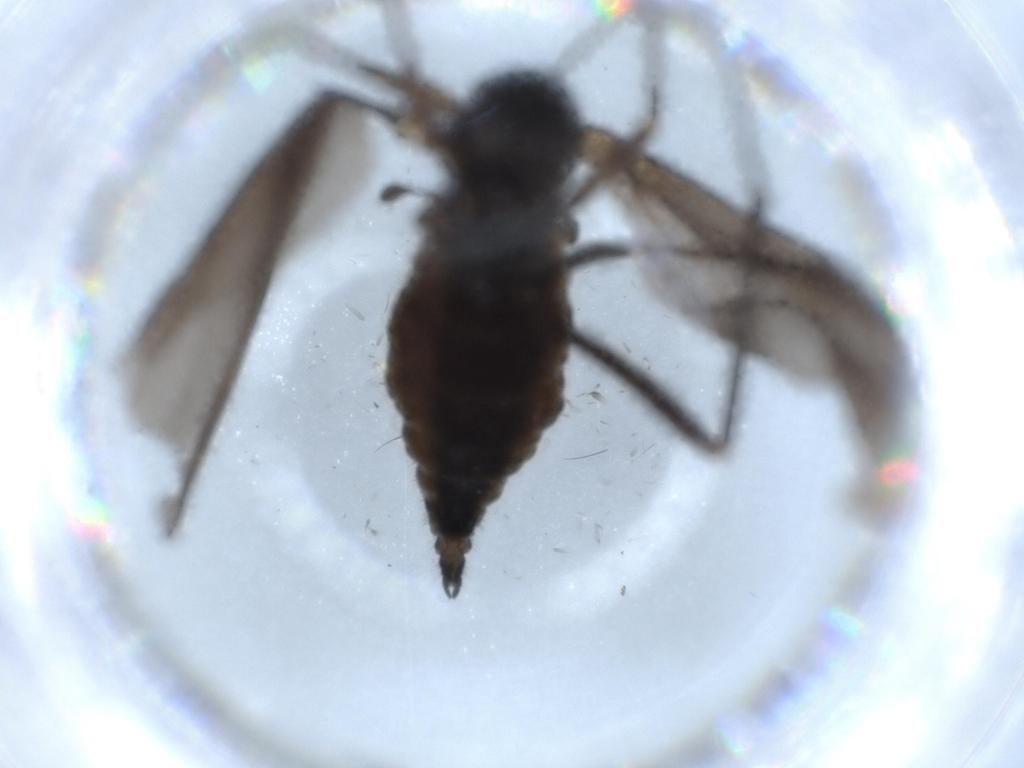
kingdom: Animalia
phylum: Arthropoda
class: Insecta
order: Diptera
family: Sciaridae
